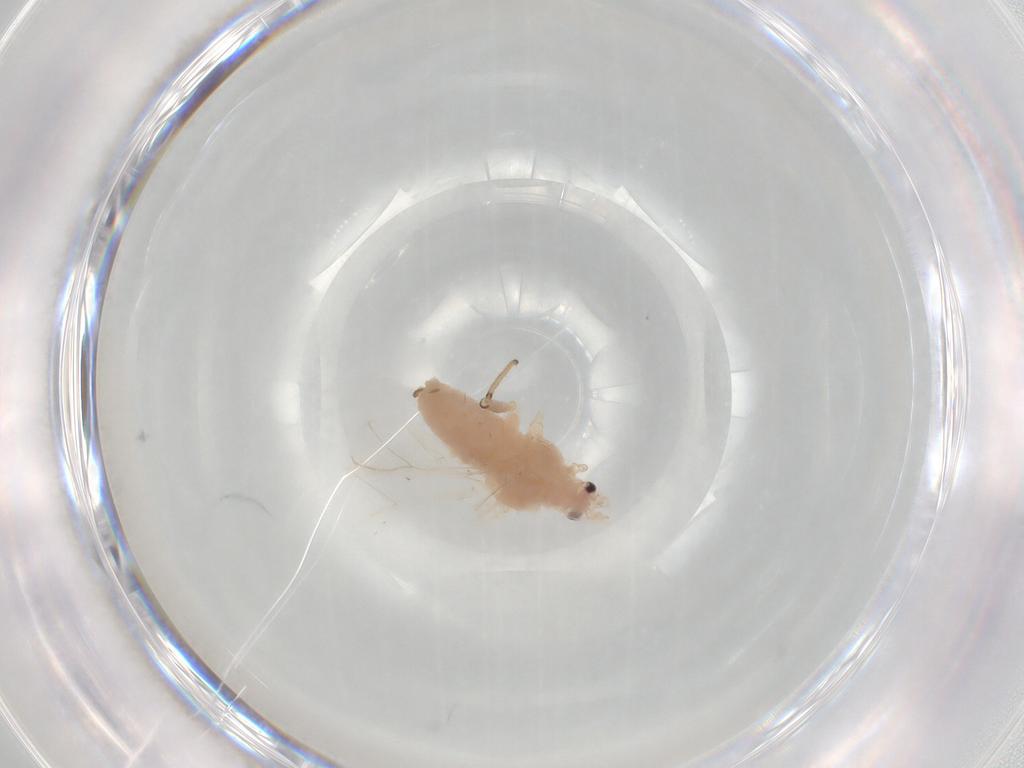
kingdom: Animalia
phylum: Arthropoda
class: Insecta
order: Hemiptera
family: Aphididae
